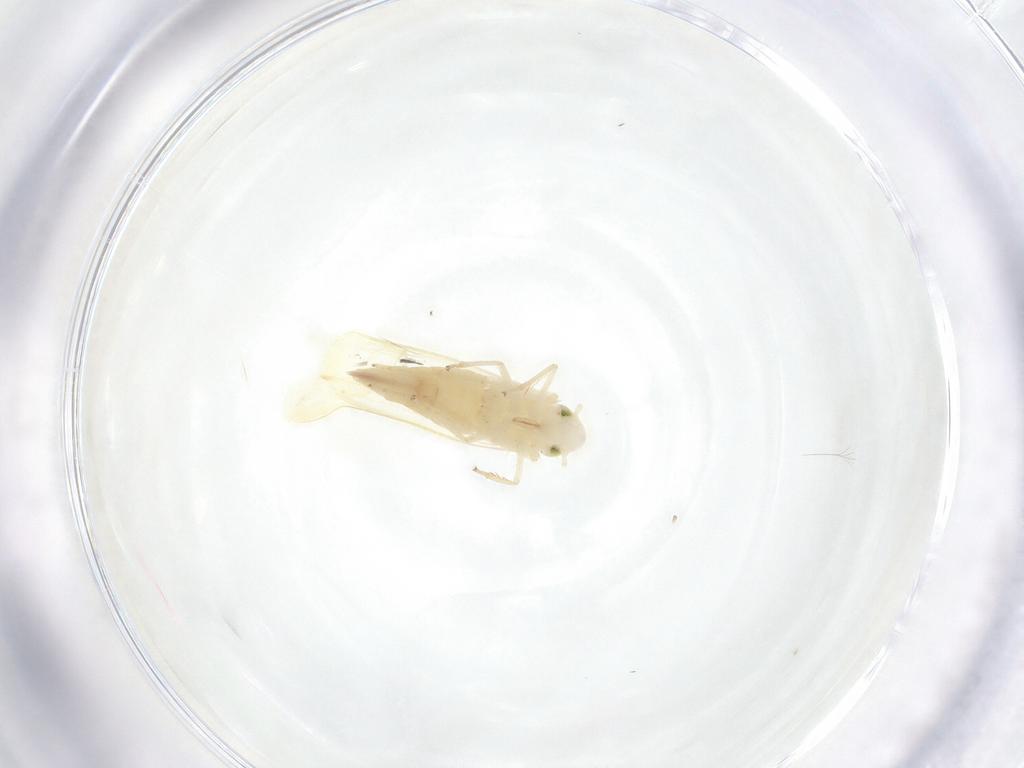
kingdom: Animalia
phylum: Arthropoda
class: Insecta
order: Hemiptera
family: Cicadellidae
